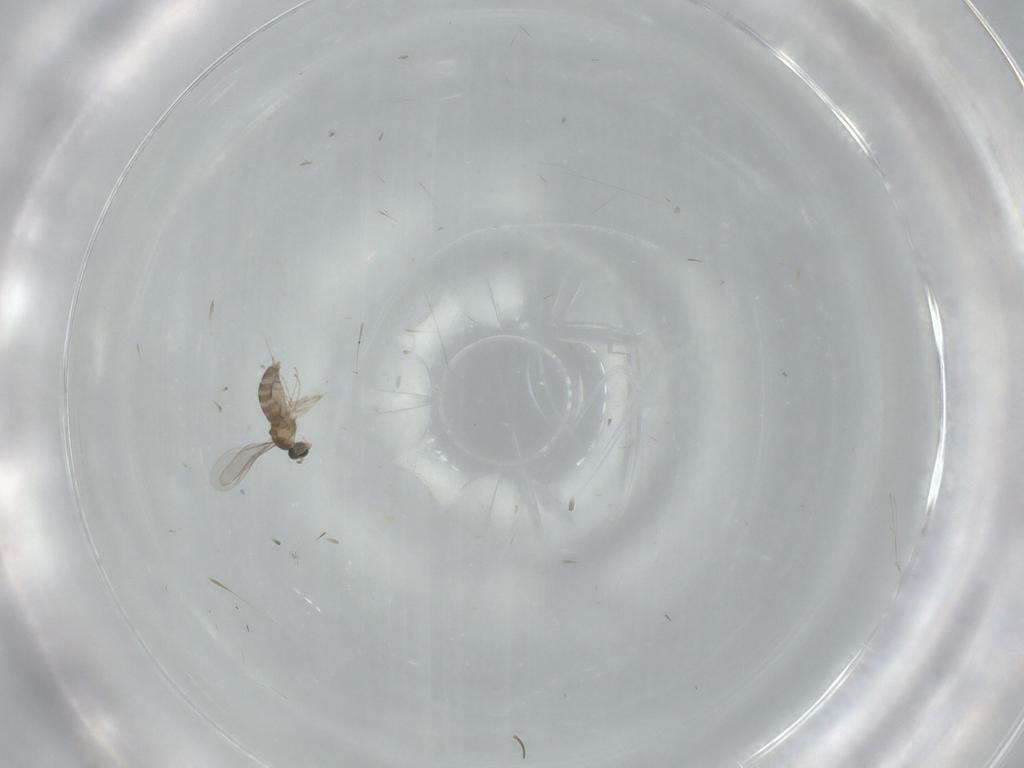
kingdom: Animalia
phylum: Arthropoda
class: Insecta
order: Diptera
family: Cecidomyiidae
